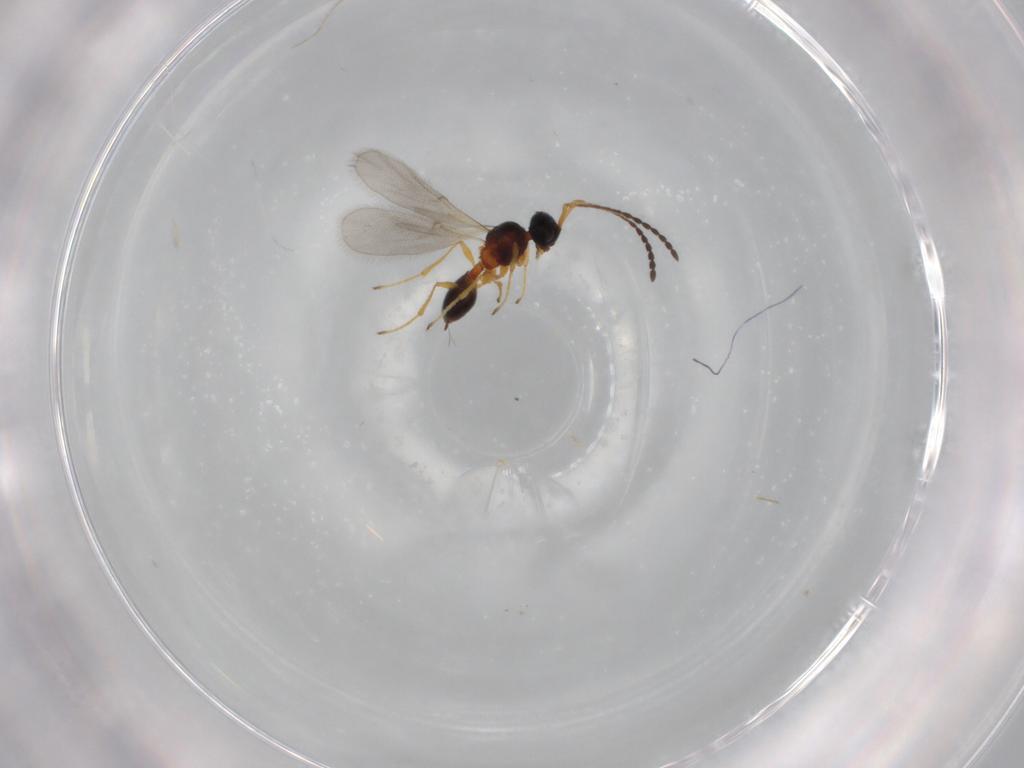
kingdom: Animalia
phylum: Arthropoda
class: Insecta
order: Hymenoptera
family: Diapriidae
